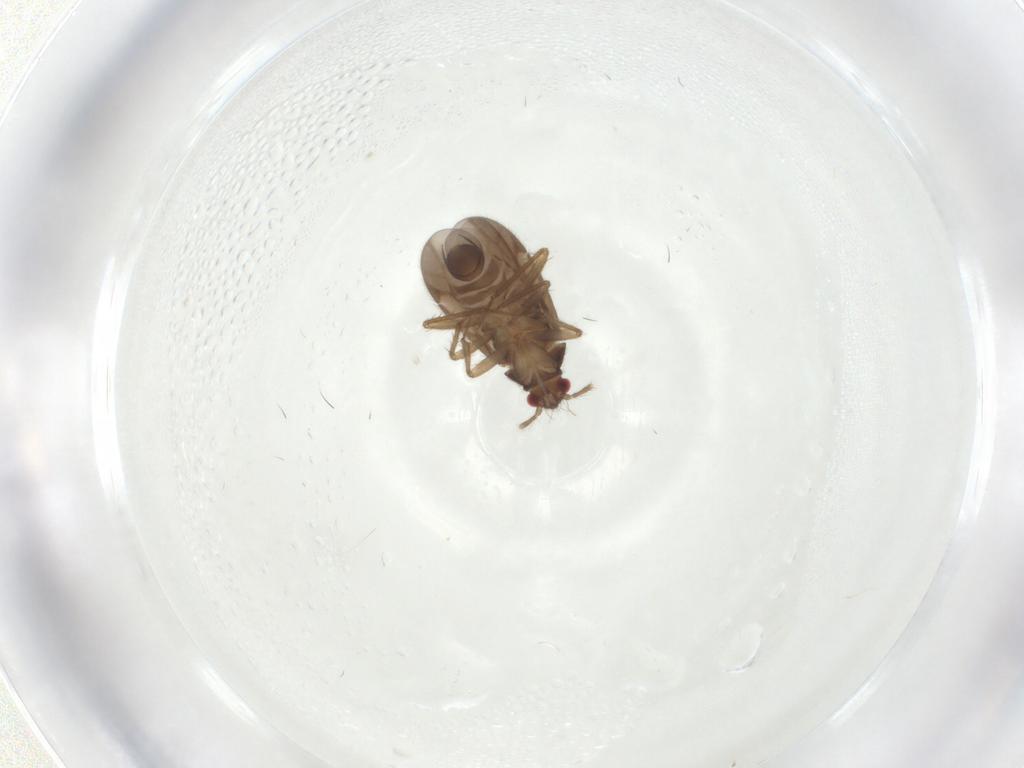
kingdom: Animalia
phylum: Arthropoda
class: Insecta
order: Hemiptera
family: Ceratocombidae
